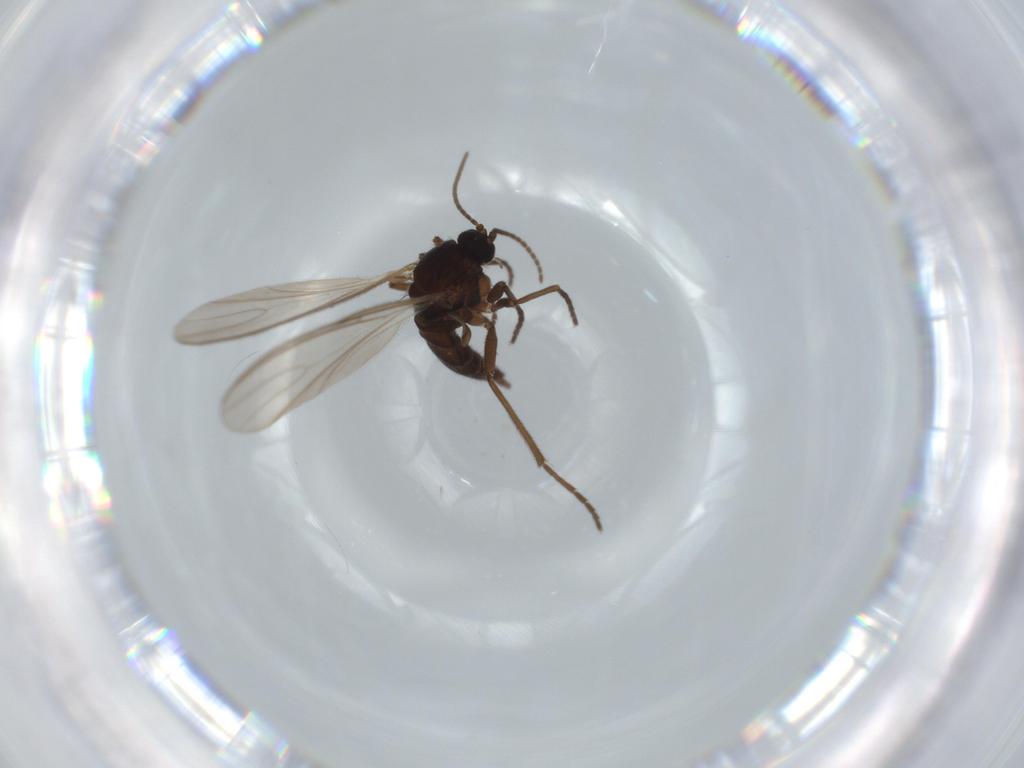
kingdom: Animalia
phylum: Arthropoda
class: Insecta
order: Diptera
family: Sciaridae
